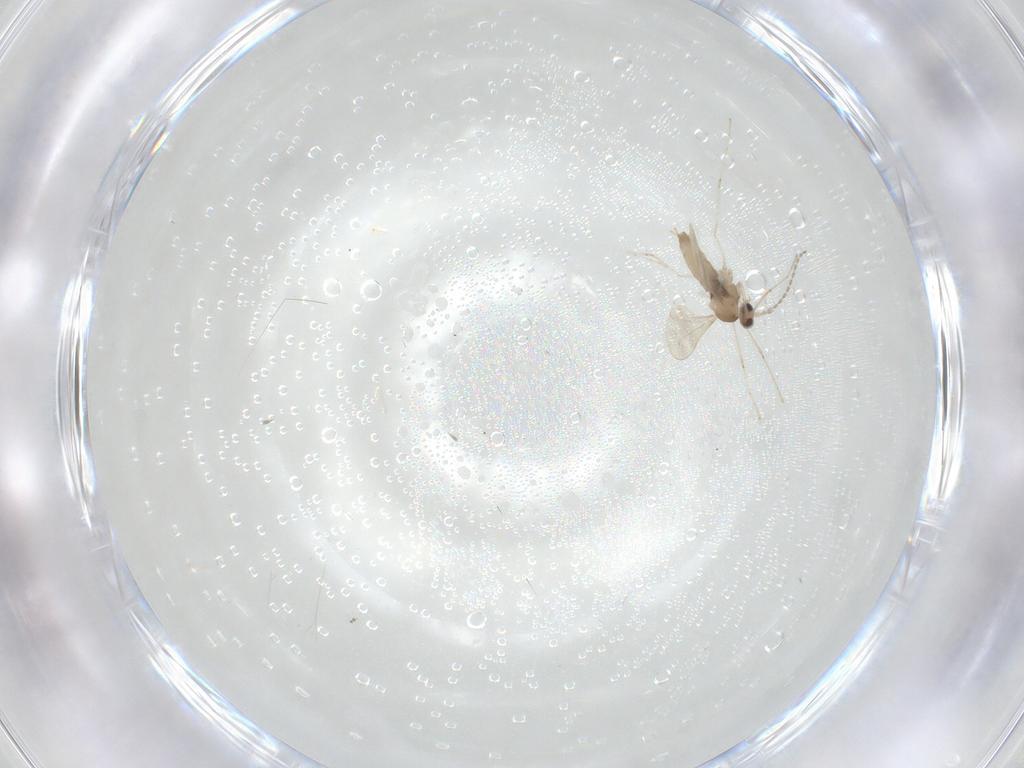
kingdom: Animalia
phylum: Arthropoda
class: Insecta
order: Diptera
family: Cecidomyiidae
